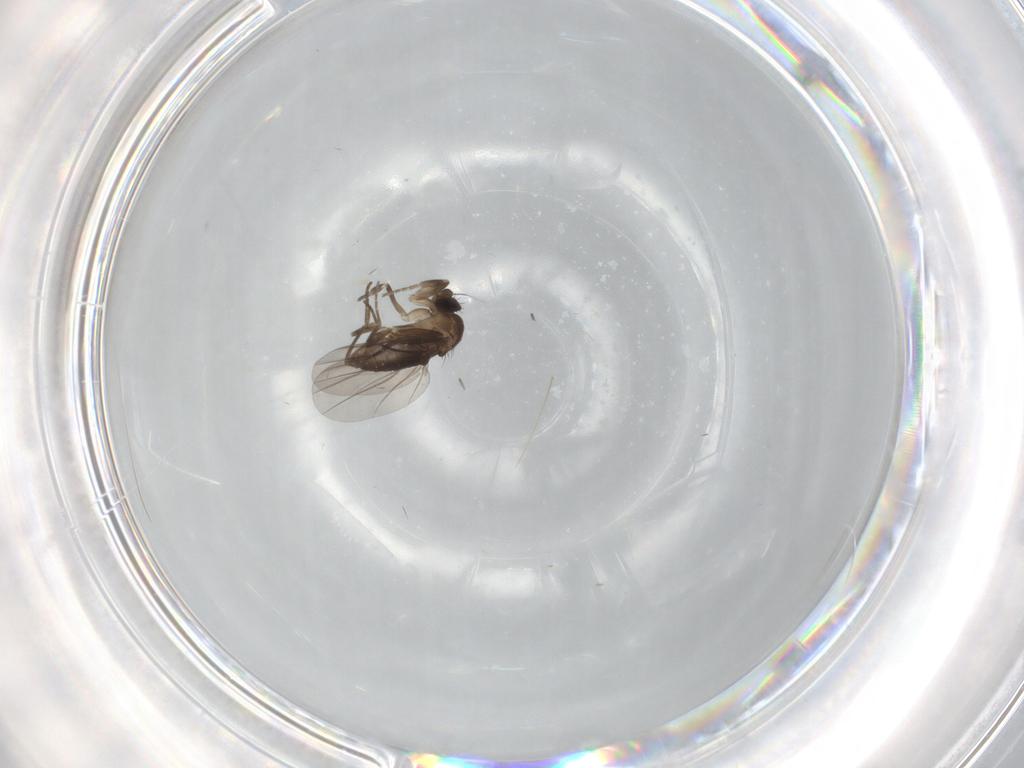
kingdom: Animalia
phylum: Arthropoda
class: Insecta
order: Diptera
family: Phoridae
